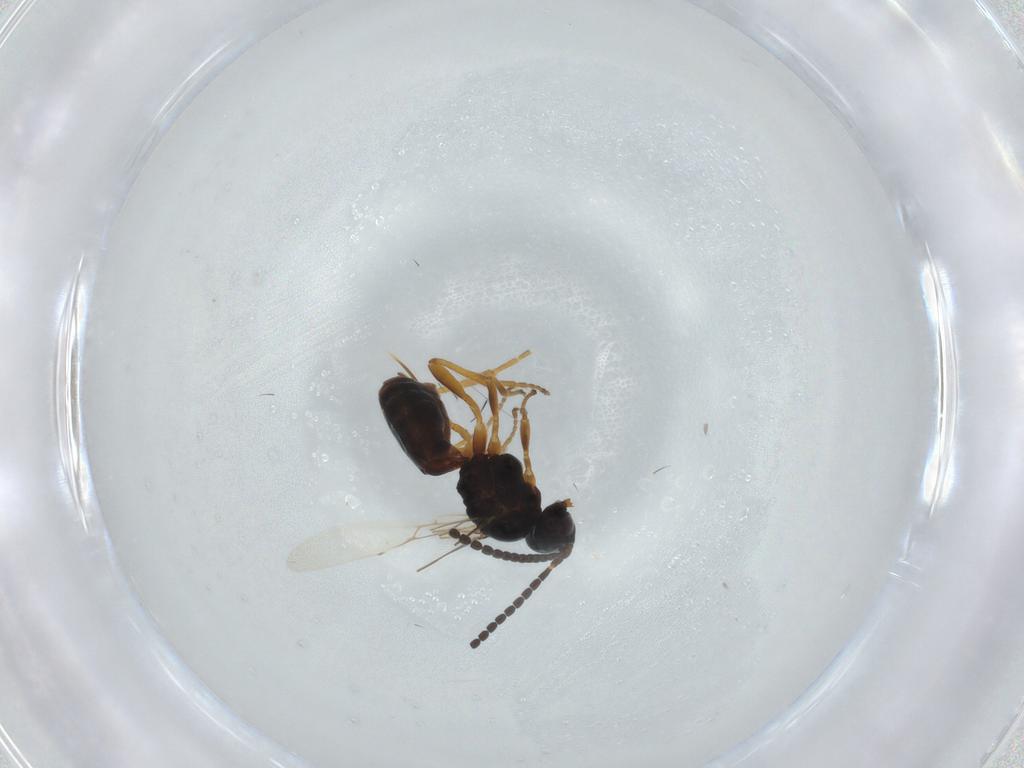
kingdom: Animalia
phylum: Arthropoda
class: Insecta
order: Hymenoptera
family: Braconidae
